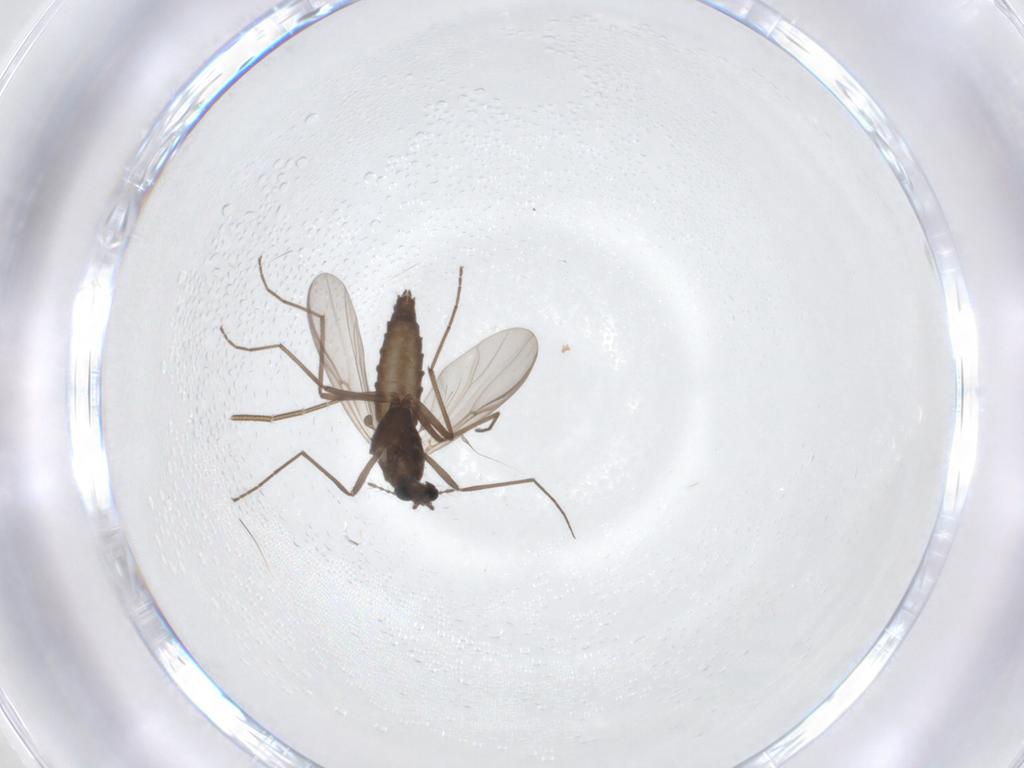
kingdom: Animalia
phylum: Arthropoda
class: Insecta
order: Diptera
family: Chironomidae
